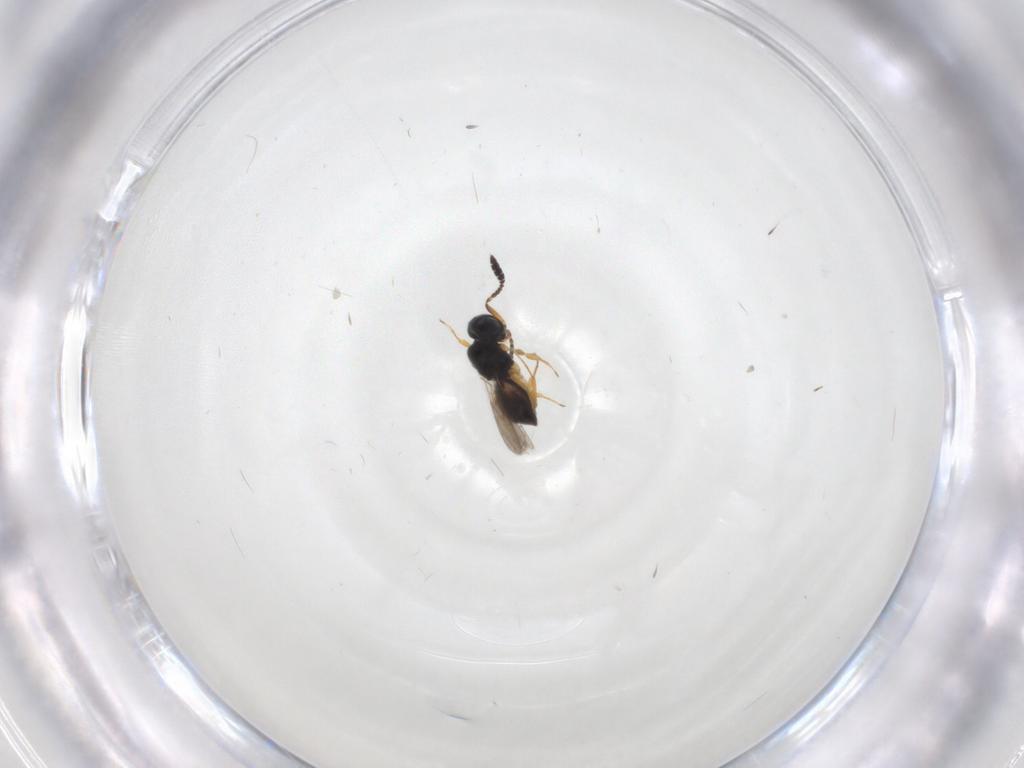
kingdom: Animalia
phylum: Arthropoda
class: Insecta
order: Hymenoptera
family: Scelionidae
